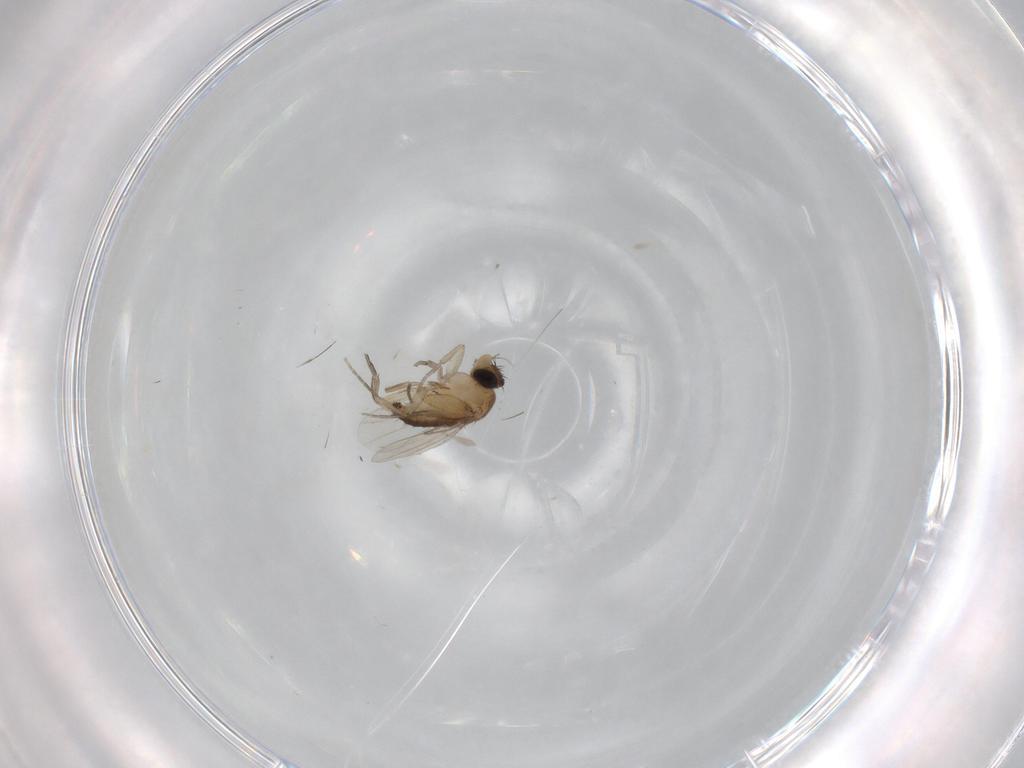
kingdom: Animalia
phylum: Arthropoda
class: Insecta
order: Diptera
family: Phoridae
